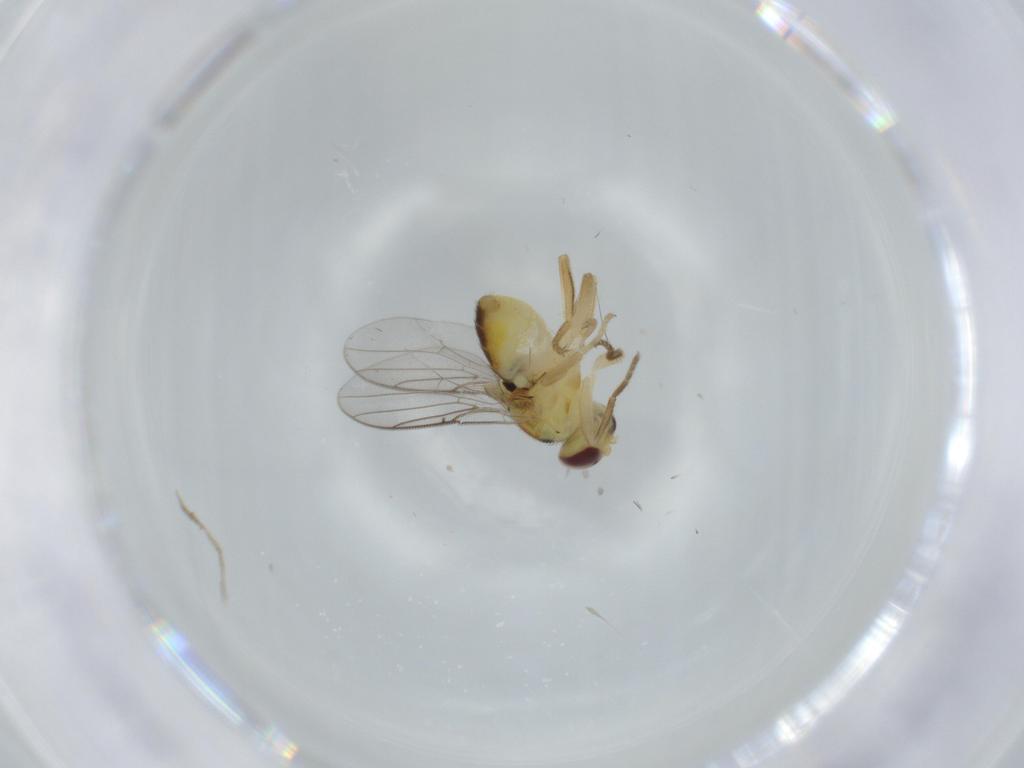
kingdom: Animalia
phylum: Arthropoda
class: Insecta
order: Diptera
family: Chloropidae
